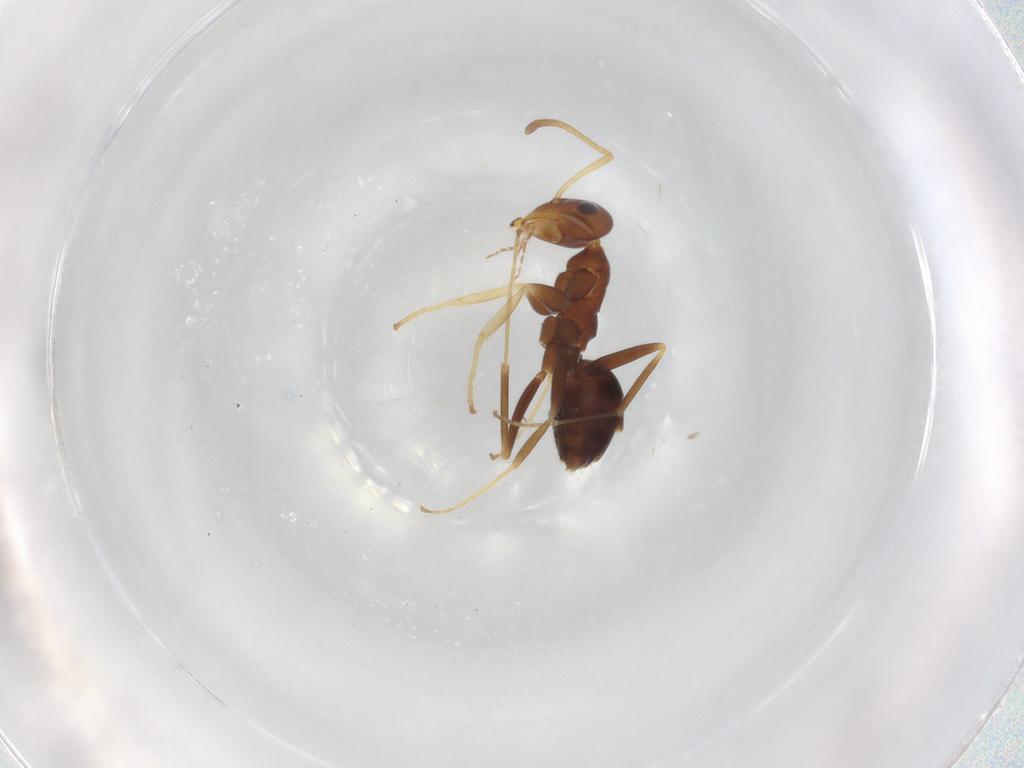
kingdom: Animalia
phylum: Arthropoda
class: Insecta
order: Hymenoptera
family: Formicidae
